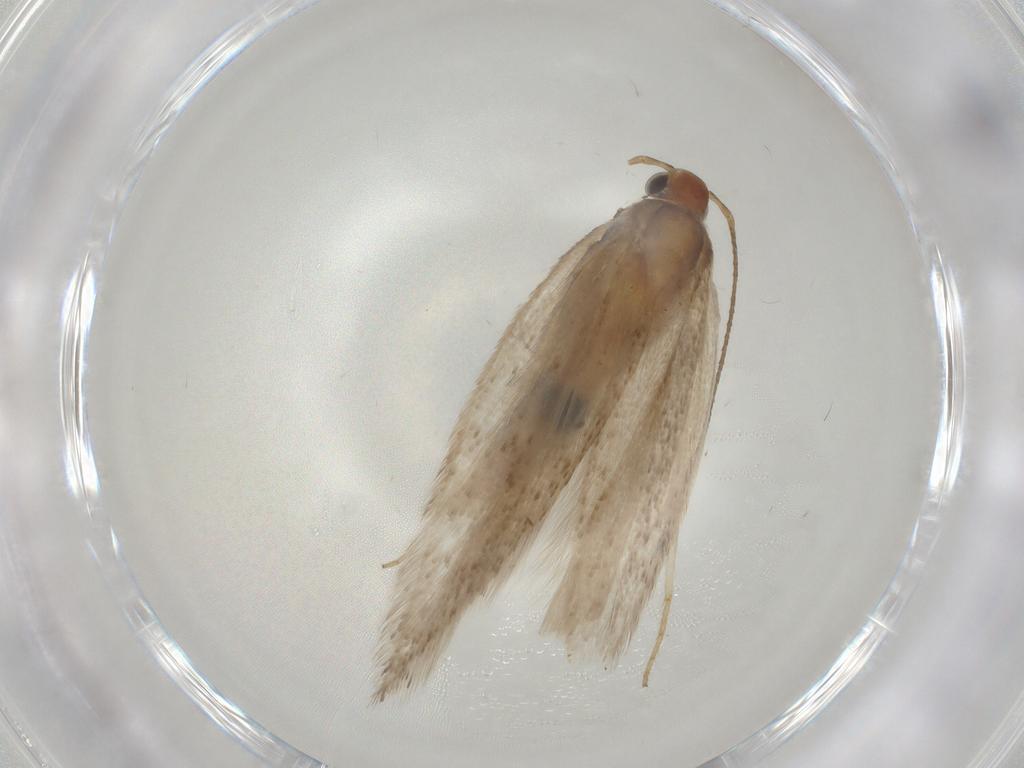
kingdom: Animalia
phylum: Arthropoda
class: Insecta
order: Lepidoptera
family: Gelechiidae
